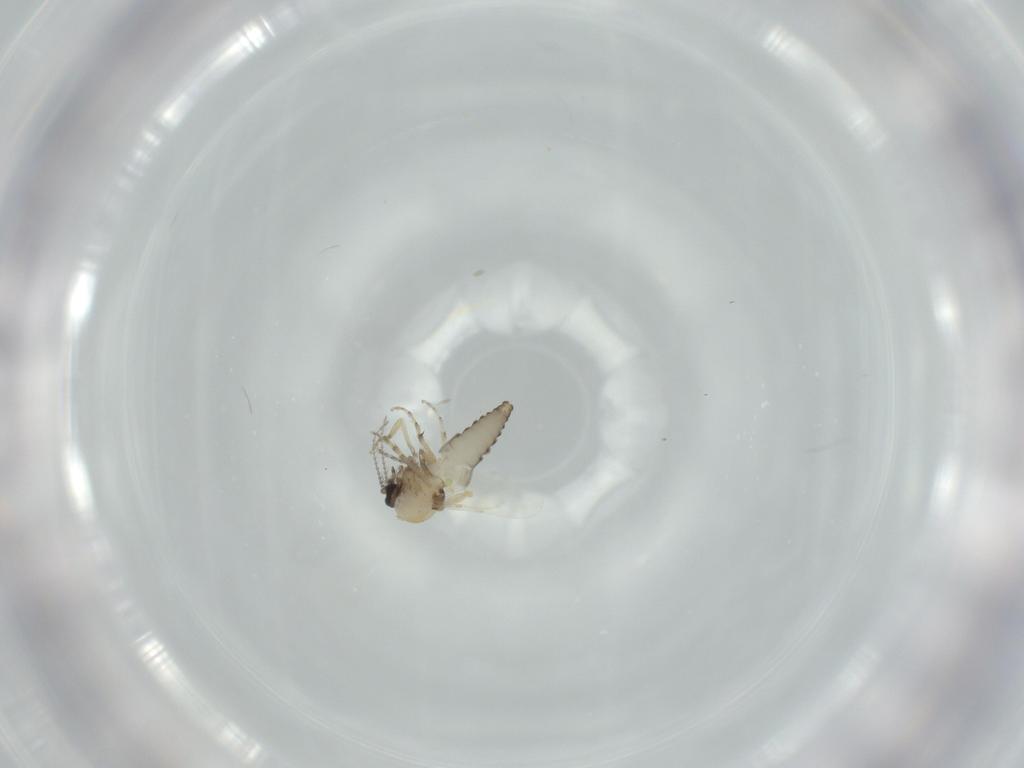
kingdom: Animalia
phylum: Arthropoda
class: Insecta
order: Diptera
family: Ceratopogonidae
